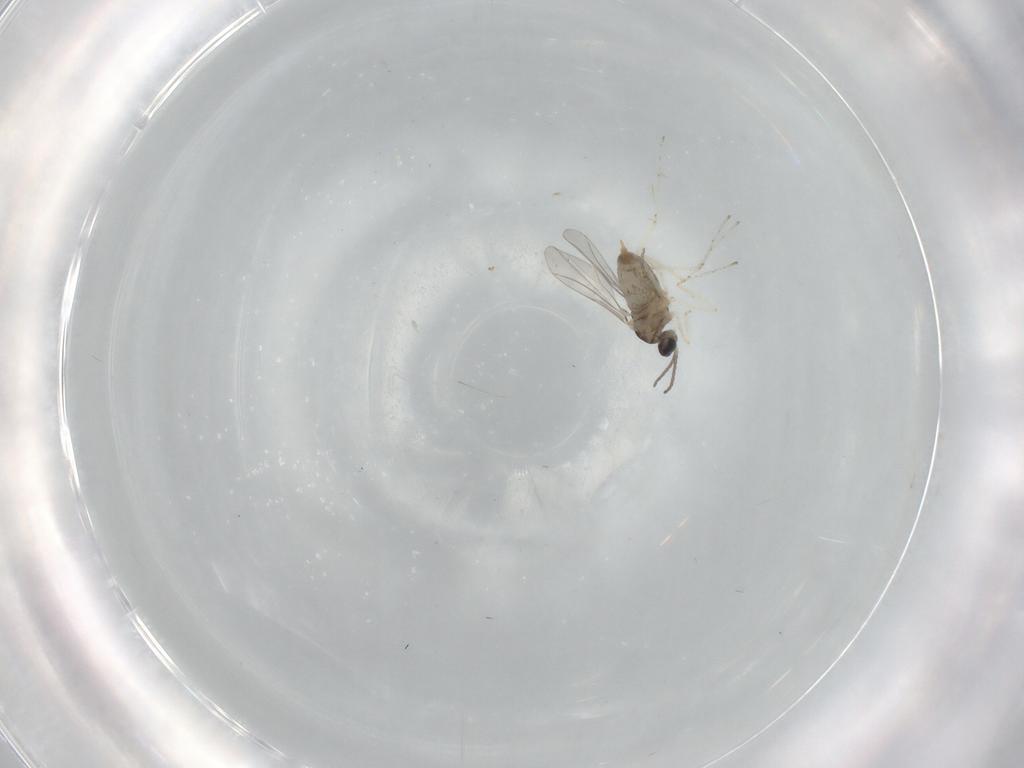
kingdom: Animalia
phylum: Arthropoda
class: Insecta
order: Diptera
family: Cecidomyiidae
